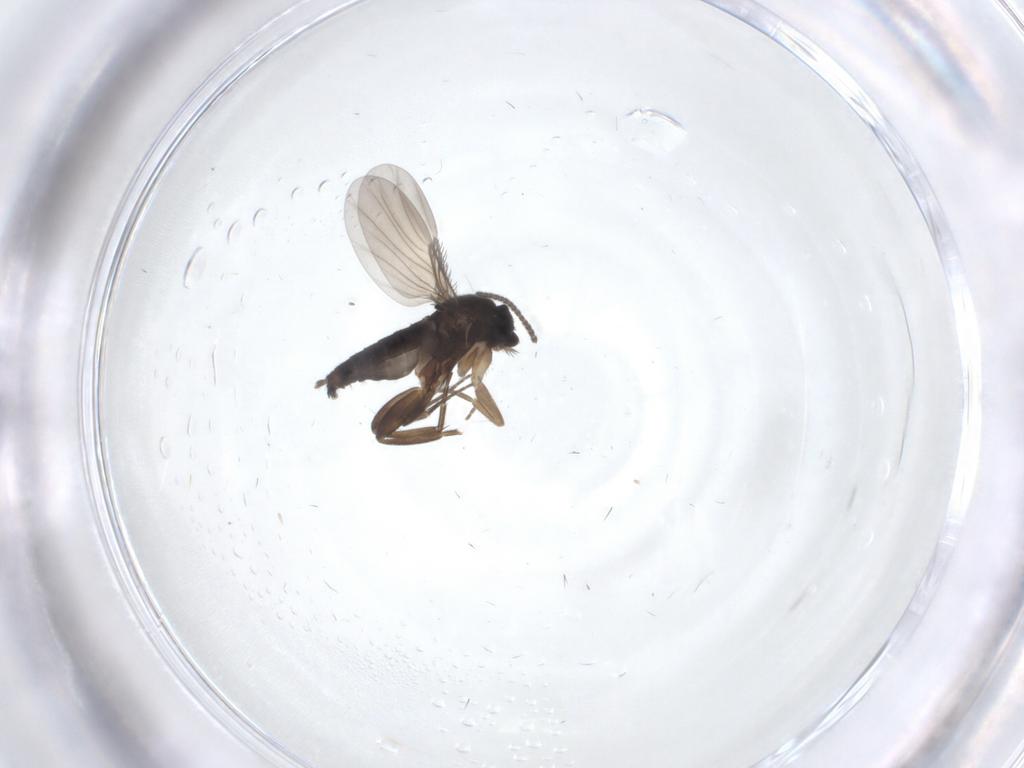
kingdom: Animalia
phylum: Arthropoda
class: Insecta
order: Diptera
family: Phoridae
